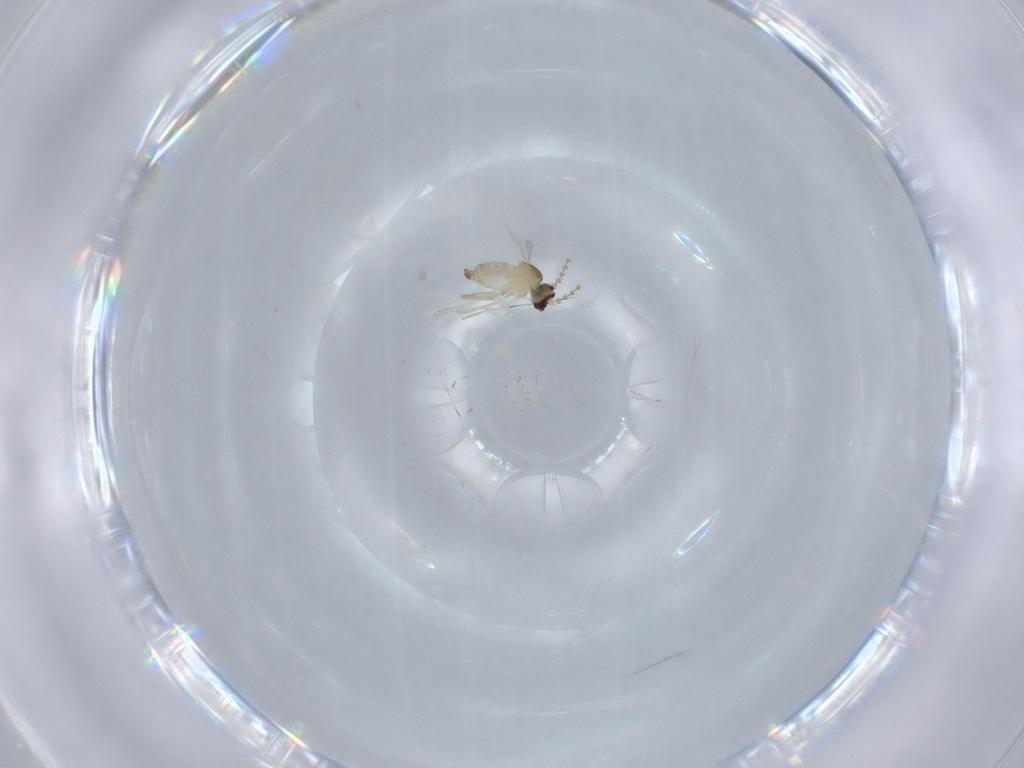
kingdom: Animalia
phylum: Arthropoda
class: Insecta
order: Diptera
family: Cecidomyiidae
